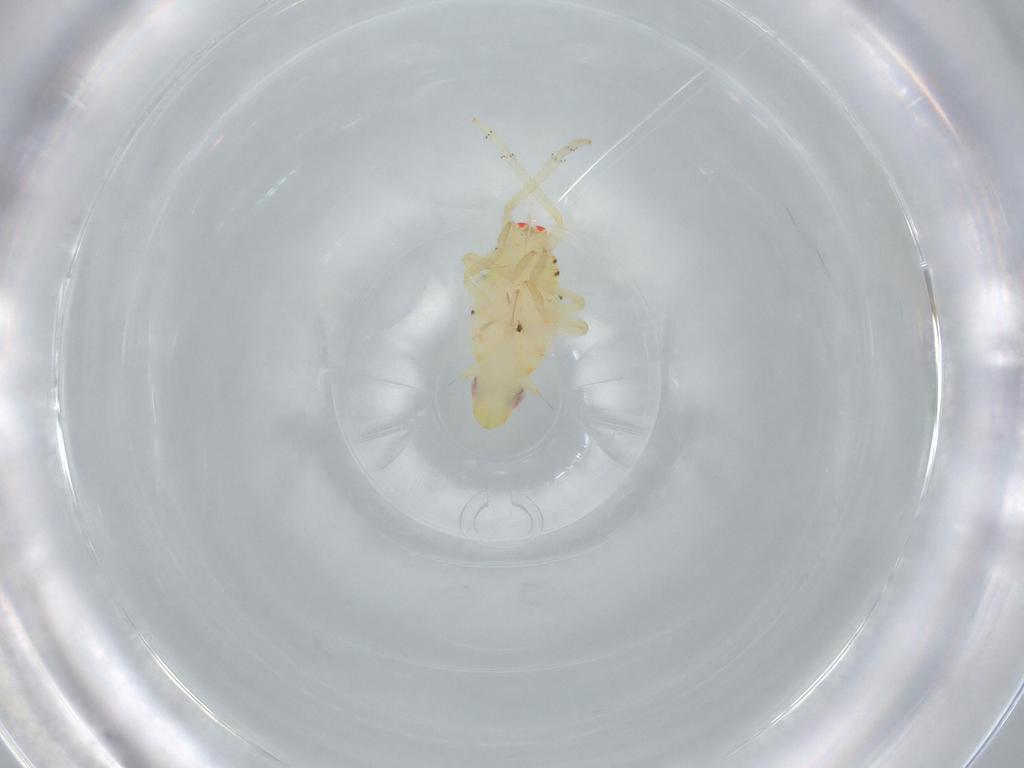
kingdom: Animalia
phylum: Arthropoda
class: Insecta
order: Hemiptera
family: Tropiduchidae
